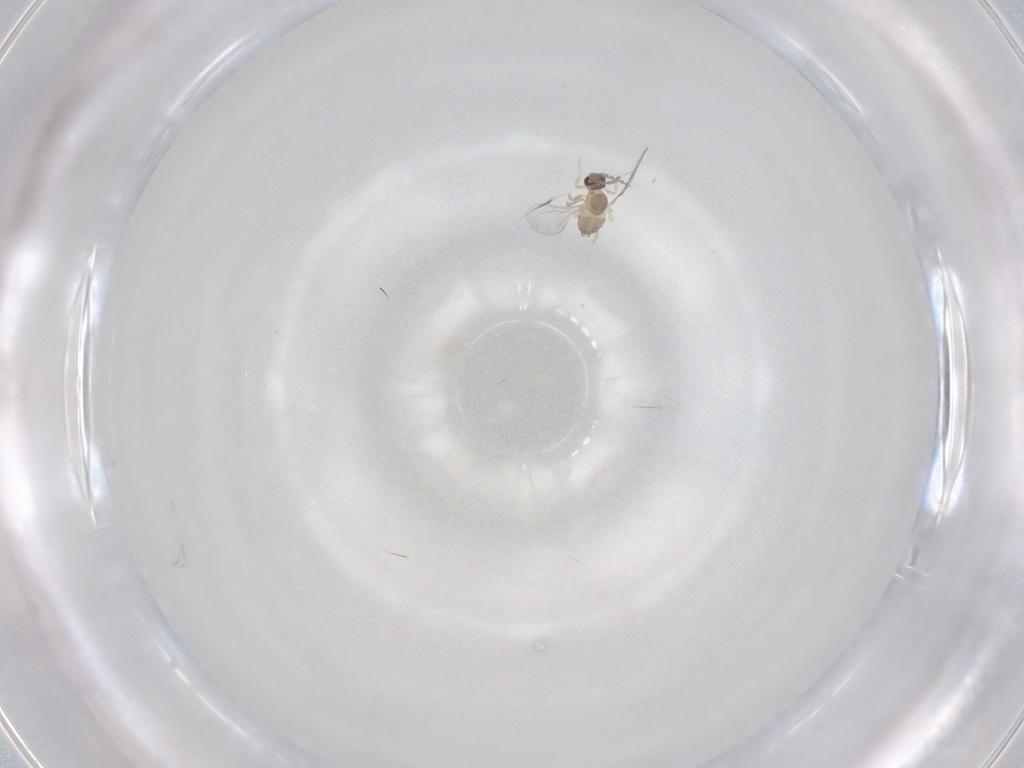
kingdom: Animalia
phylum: Arthropoda
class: Insecta
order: Diptera
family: Cecidomyiidae
